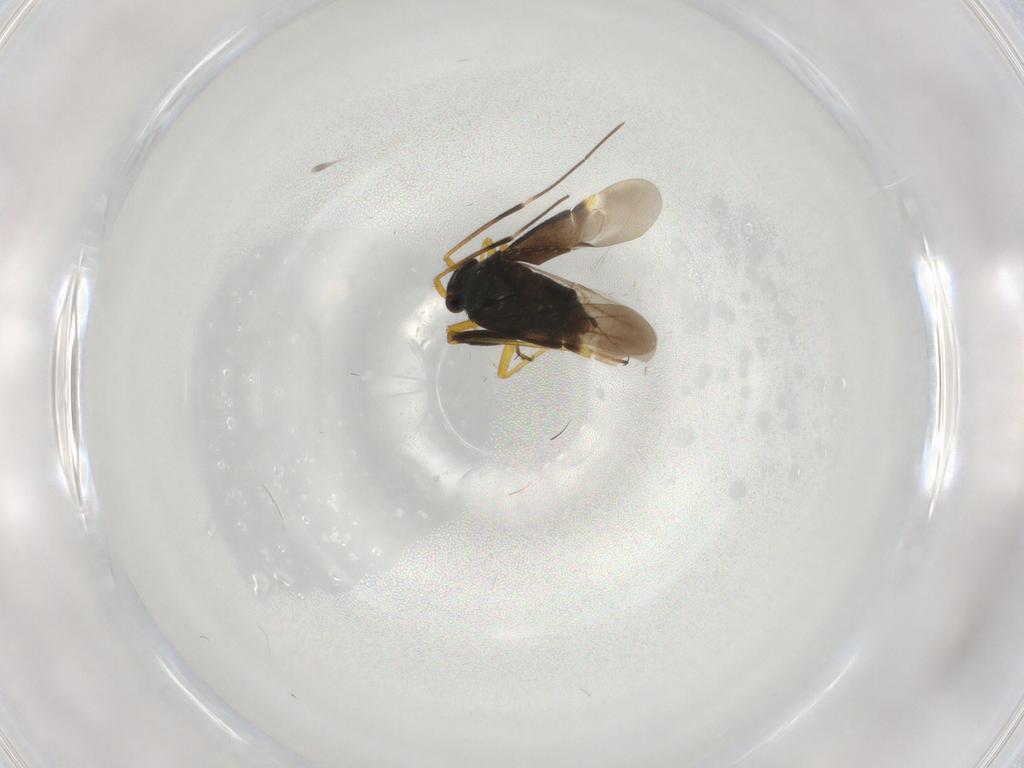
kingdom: Animalia
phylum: Arthropoda
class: Insecta
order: Hemiptera
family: Miridae
